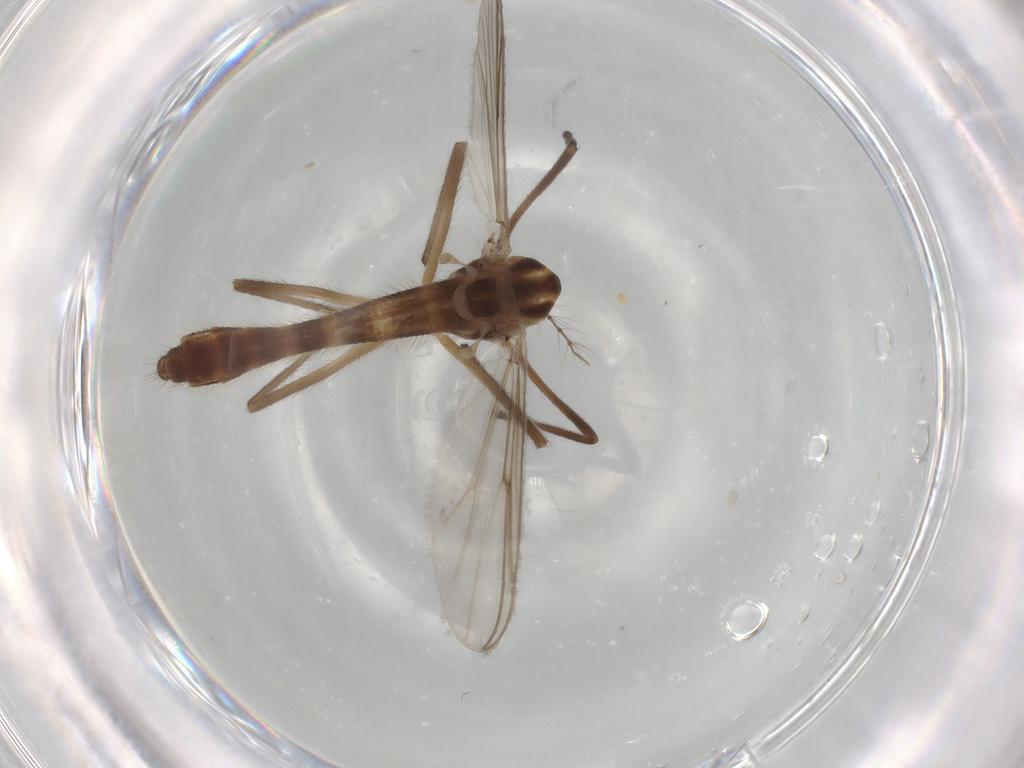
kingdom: Animalia
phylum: Arthropoda
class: Insecta
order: Diptera
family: Chironomidae
